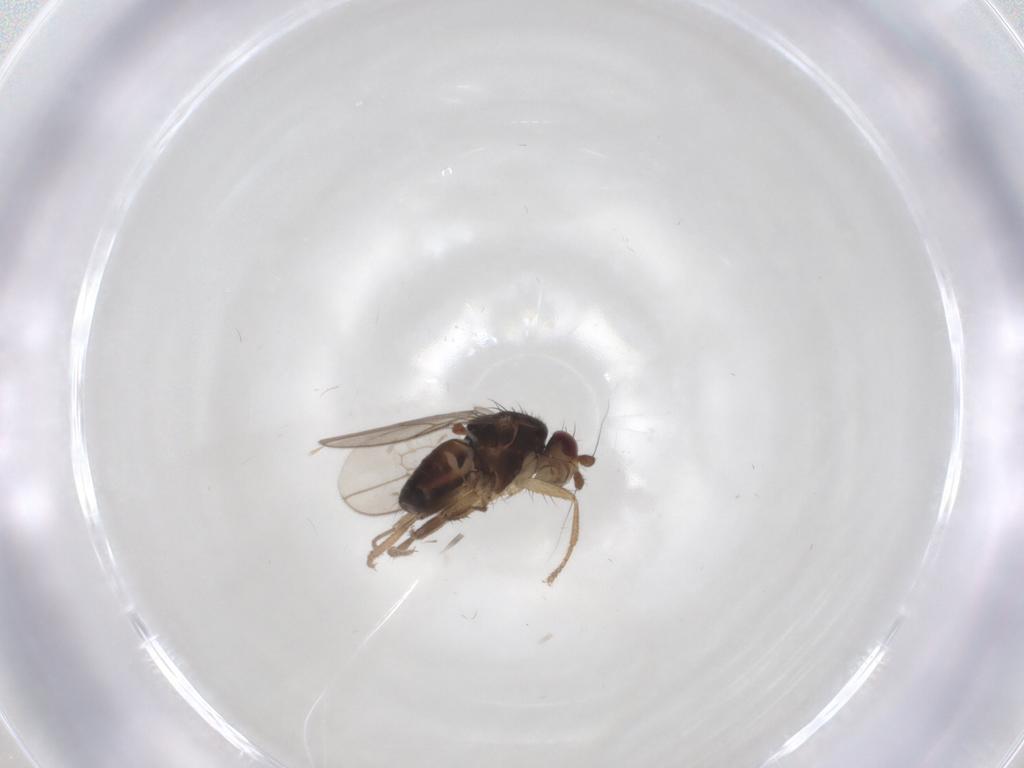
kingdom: Animalia
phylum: Arthropoda
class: Insecta
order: Diptera
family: Sphaeroceridae
